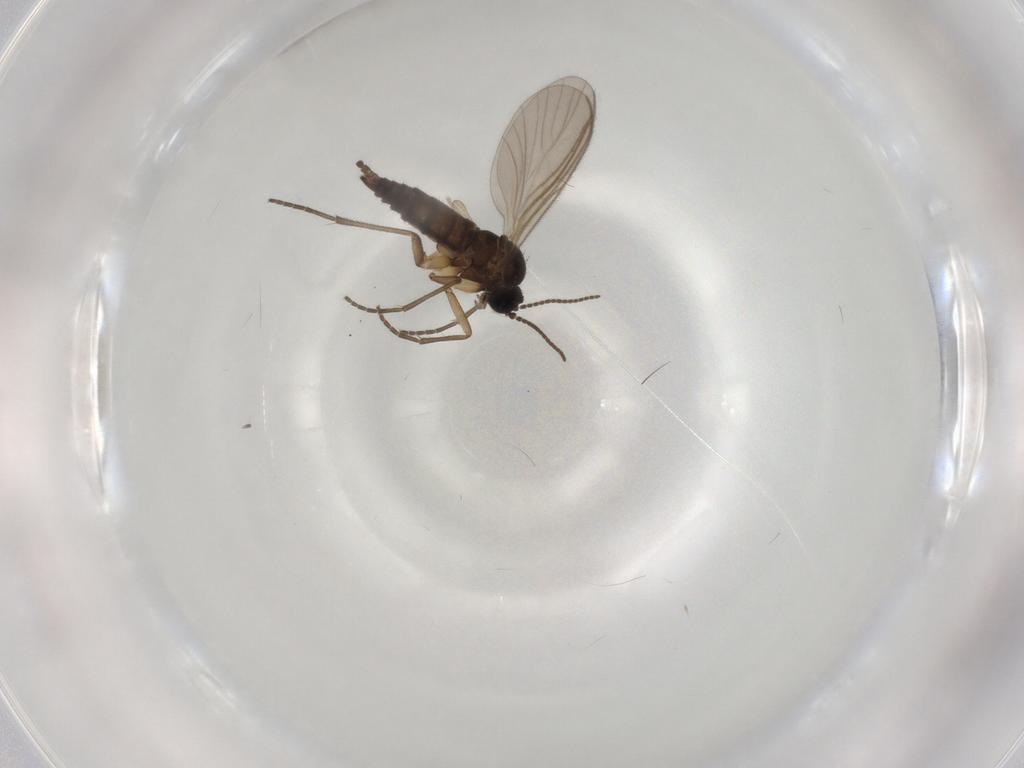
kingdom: Animalia
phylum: Arthropoda
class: Insecta
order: Diptera
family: Sciaridae
